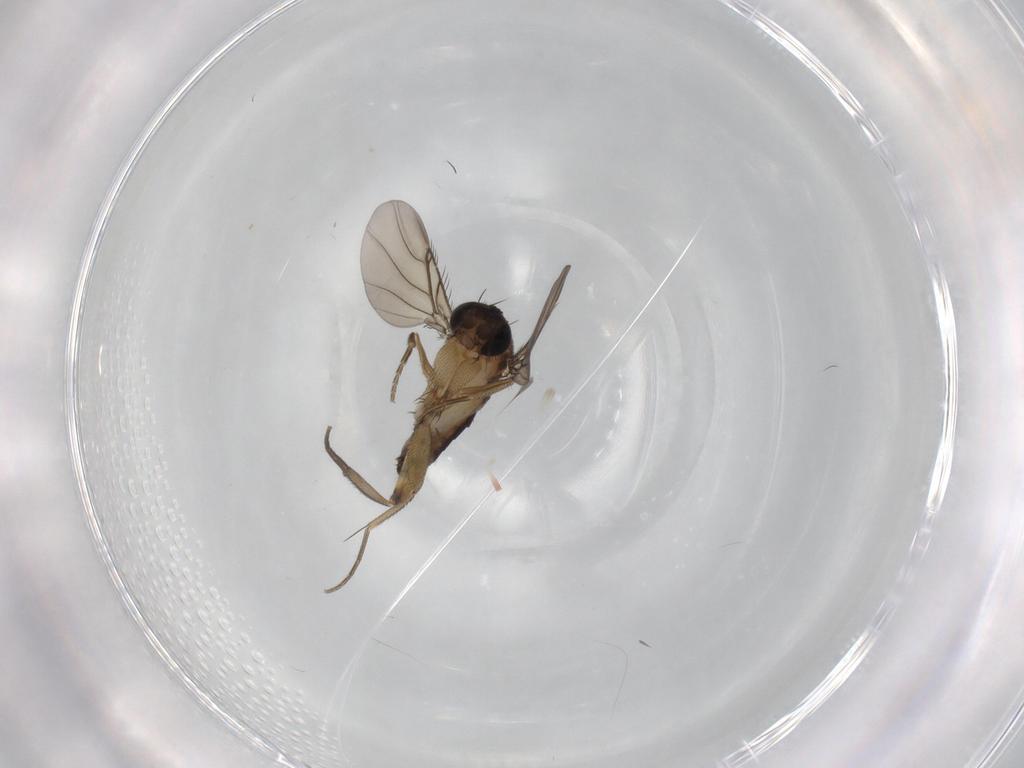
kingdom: Animalia
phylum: Arthropoda
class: Insecta
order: Diptera
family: Phoridae
